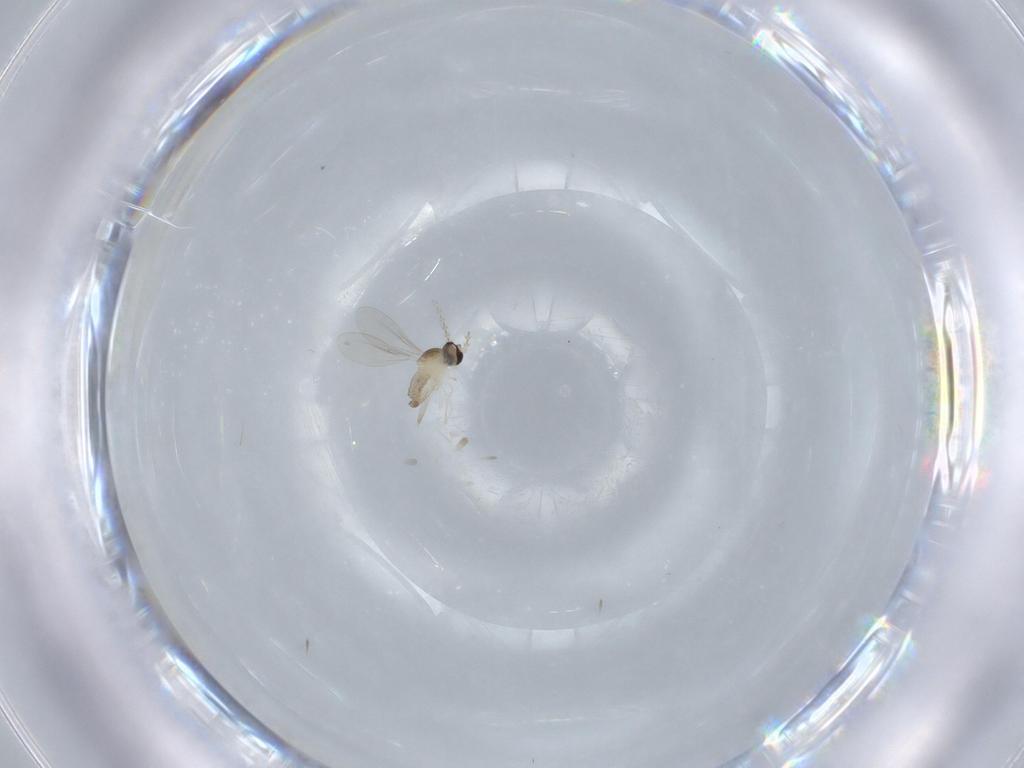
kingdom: Animalia
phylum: Arthropoda
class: Insecta
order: Diptera
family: Cecidomyiidae
